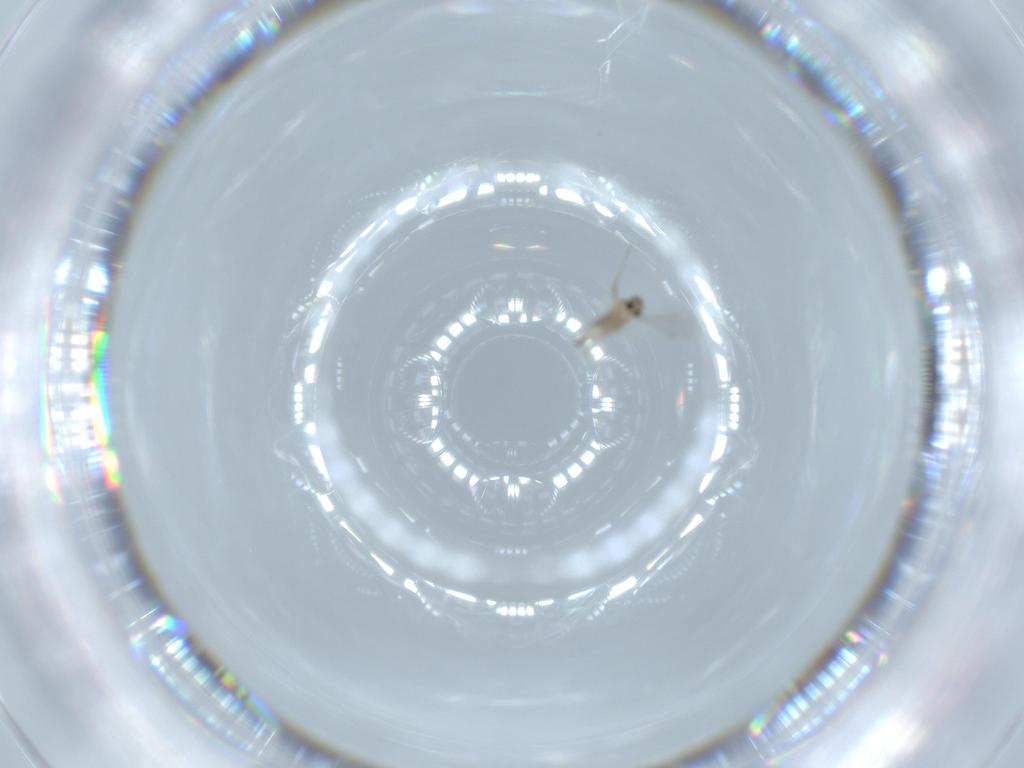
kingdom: Animalia
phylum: Arthropoda
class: Insecta
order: Diptera
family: Cecidomyiidae
